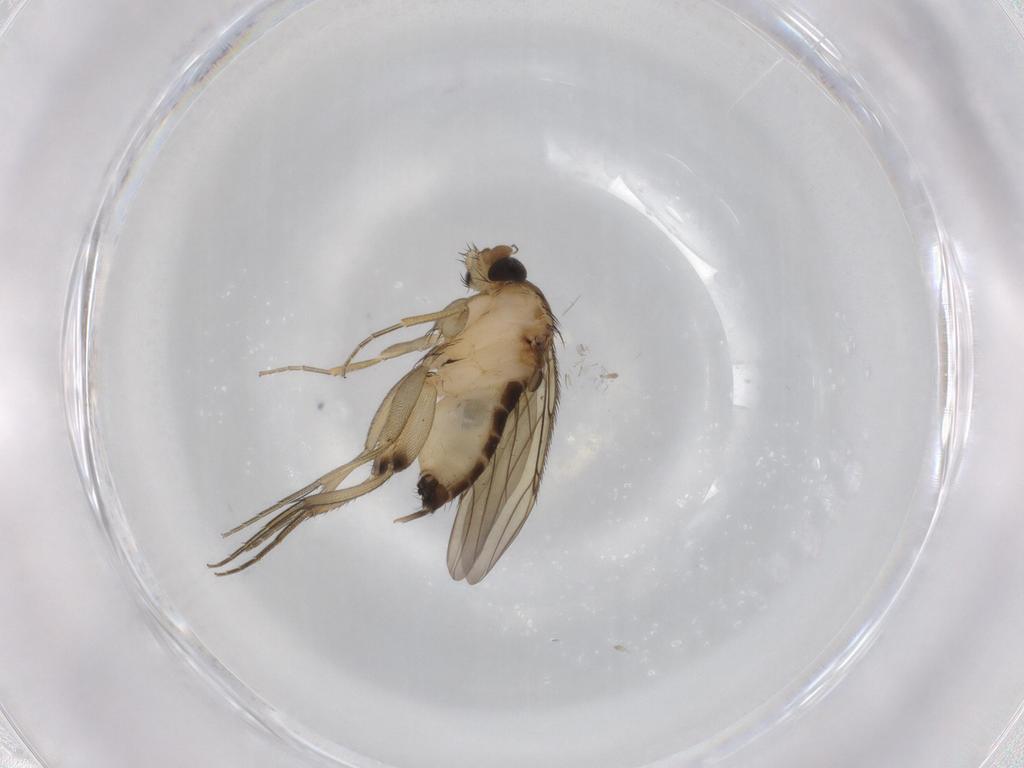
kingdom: Animalia
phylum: Arthropoda
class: Insecta
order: Diptera
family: Phoridae
